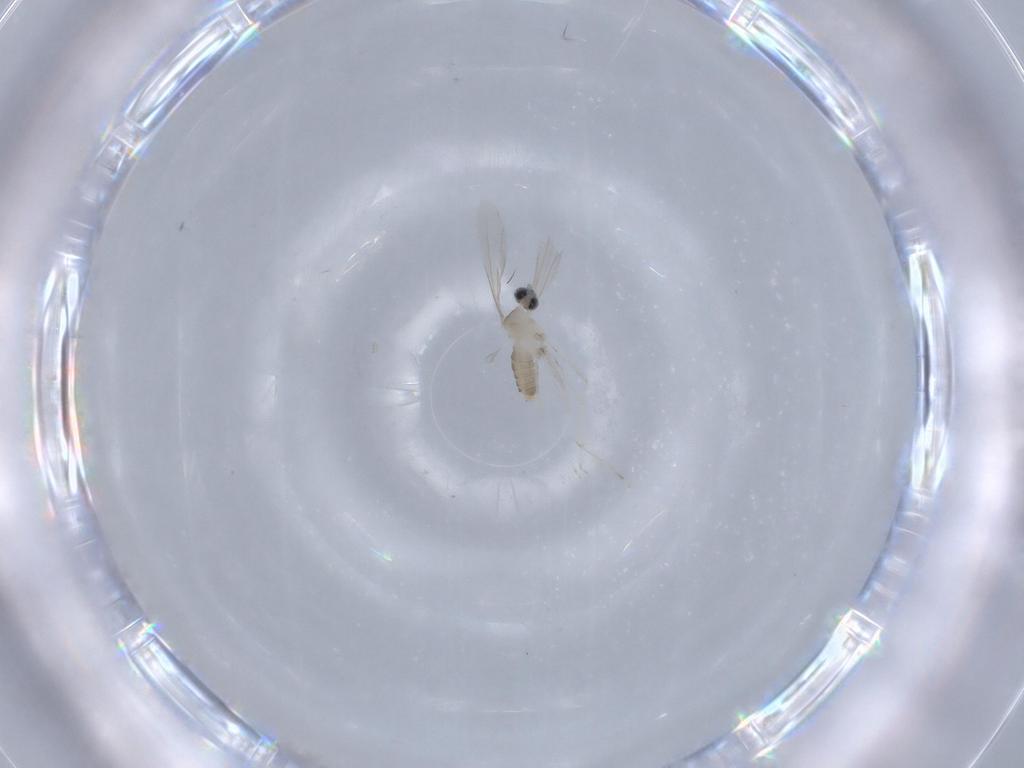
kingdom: Animalia
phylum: Arthropoda
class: Insecta
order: Diptera
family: Cecidomyiidae
